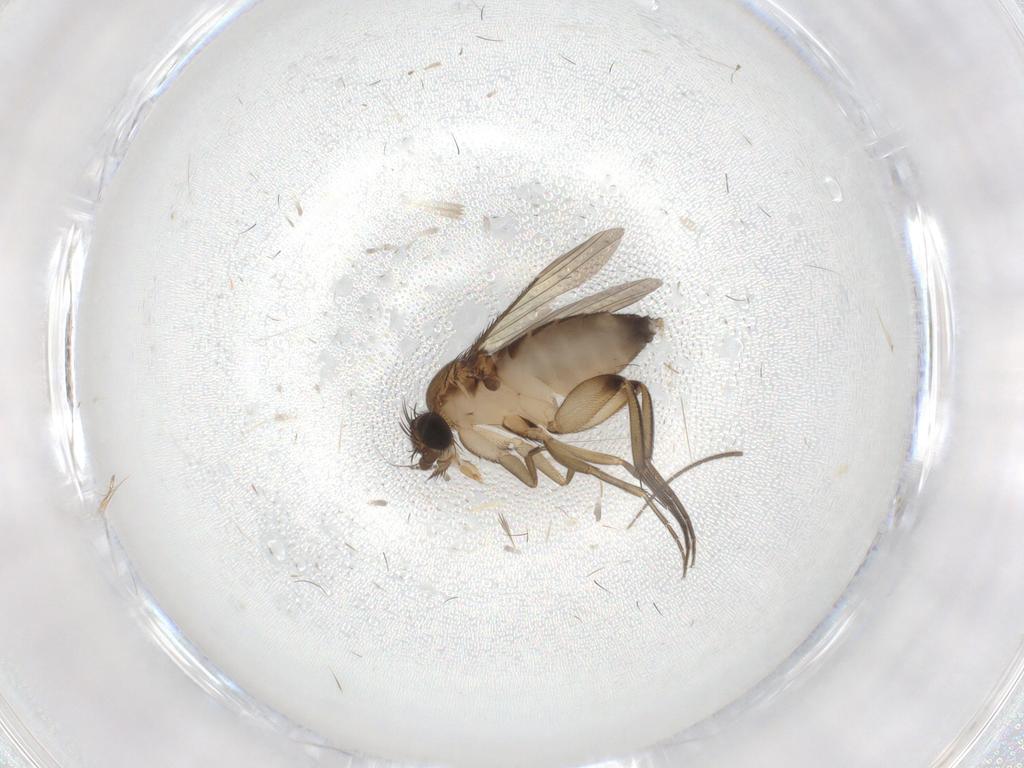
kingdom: Animalia
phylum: Arthropoda
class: Insecta
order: Diptera
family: Phoridae
